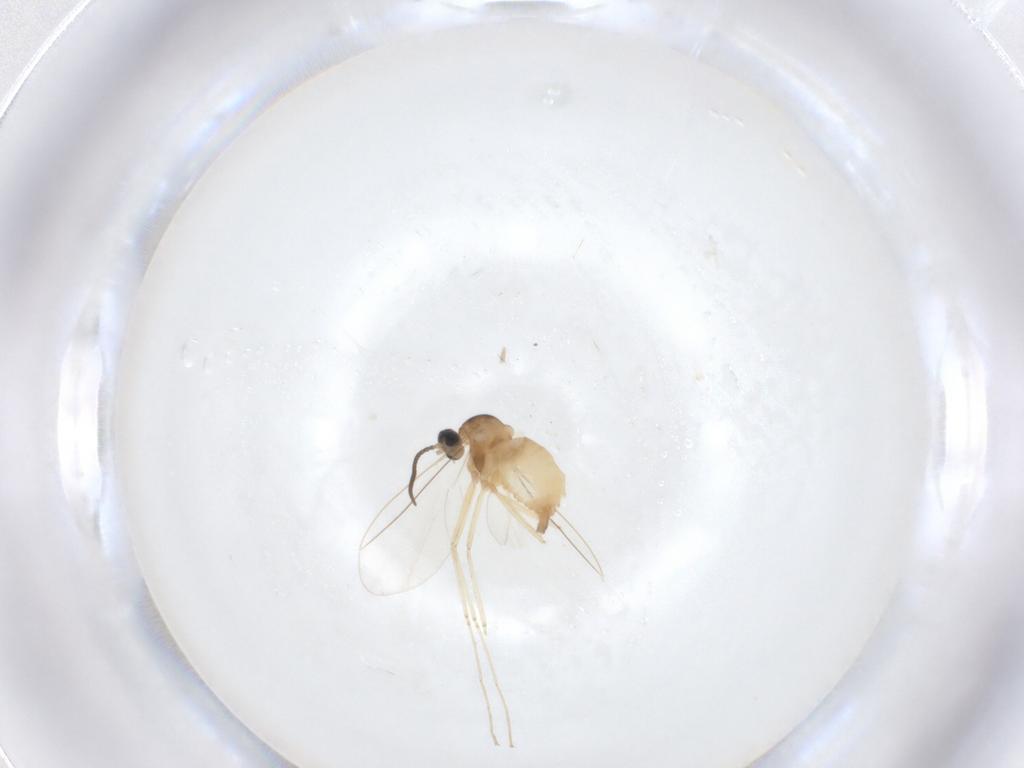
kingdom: Animalia
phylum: Arthropoda
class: Insecta
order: Diptera
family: Cecidomyiidae
